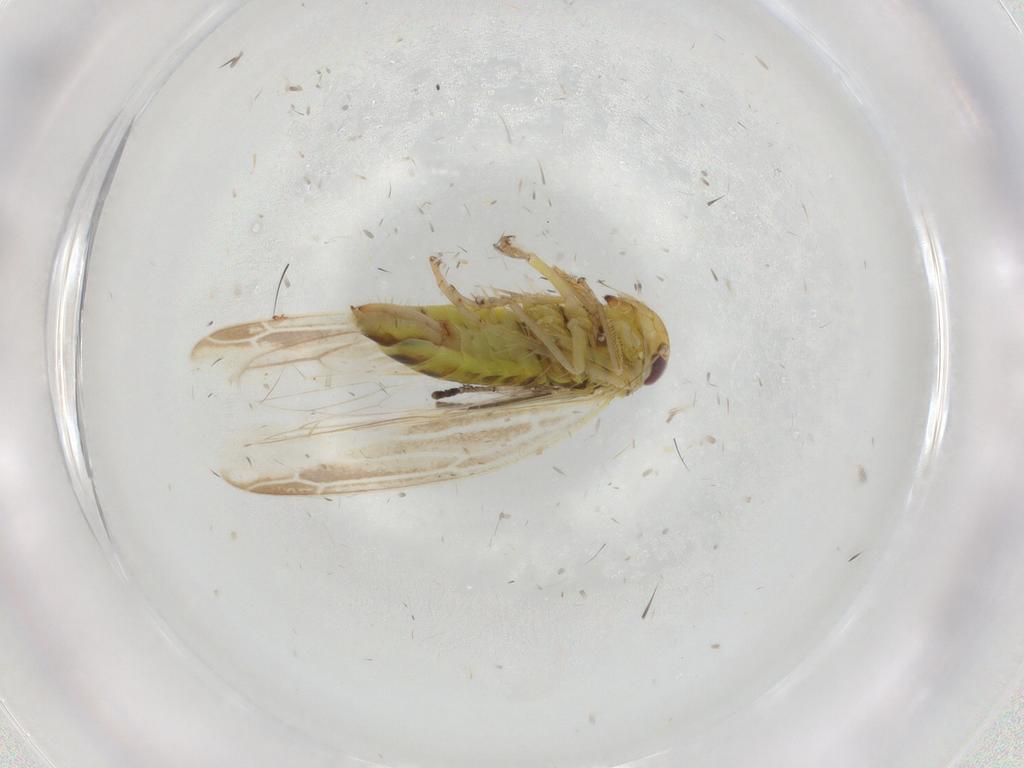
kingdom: Animalia
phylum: Arthropoda
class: Insecta
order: Hemiptera
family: Cicadellidae
